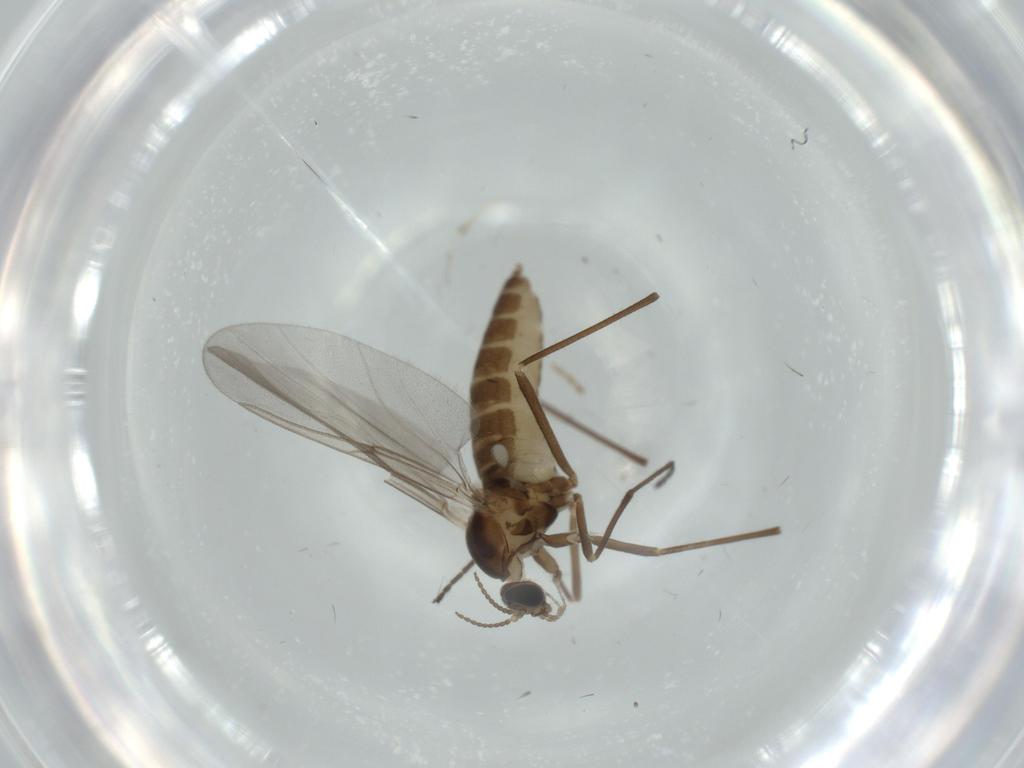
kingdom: Animalia
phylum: Arthropoda
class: Insecta
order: Diptera
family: Cecidomyiidae
